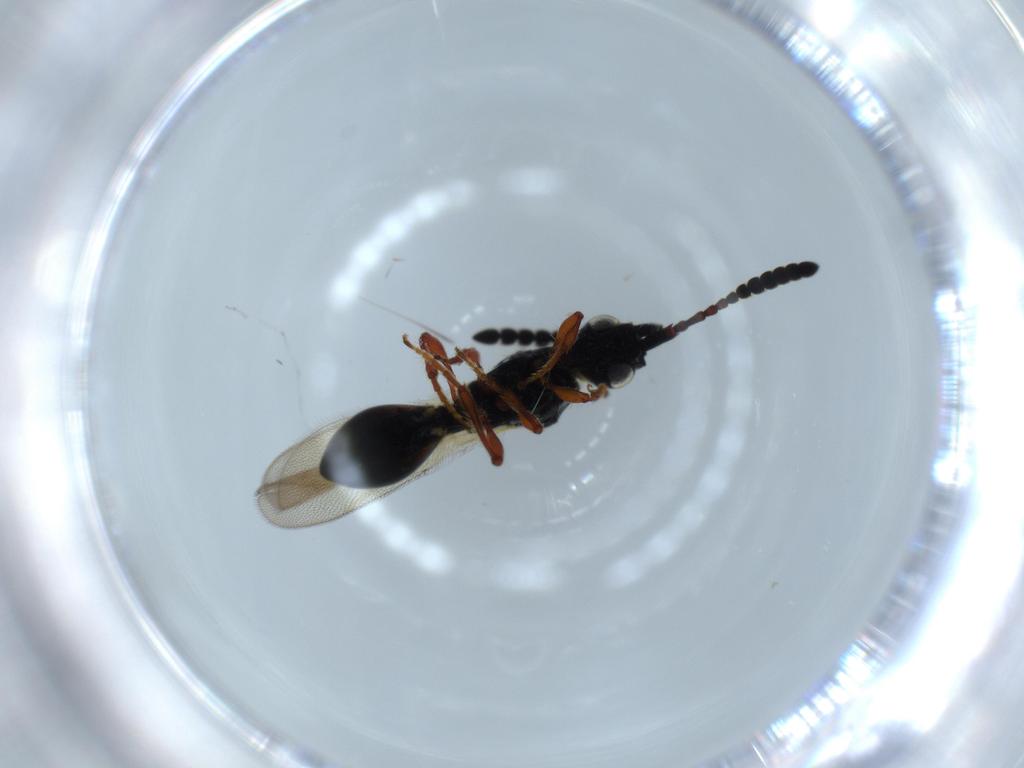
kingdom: Animalia
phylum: Arthropoda
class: Insecta
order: Hymenoptera
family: Diapriidae
